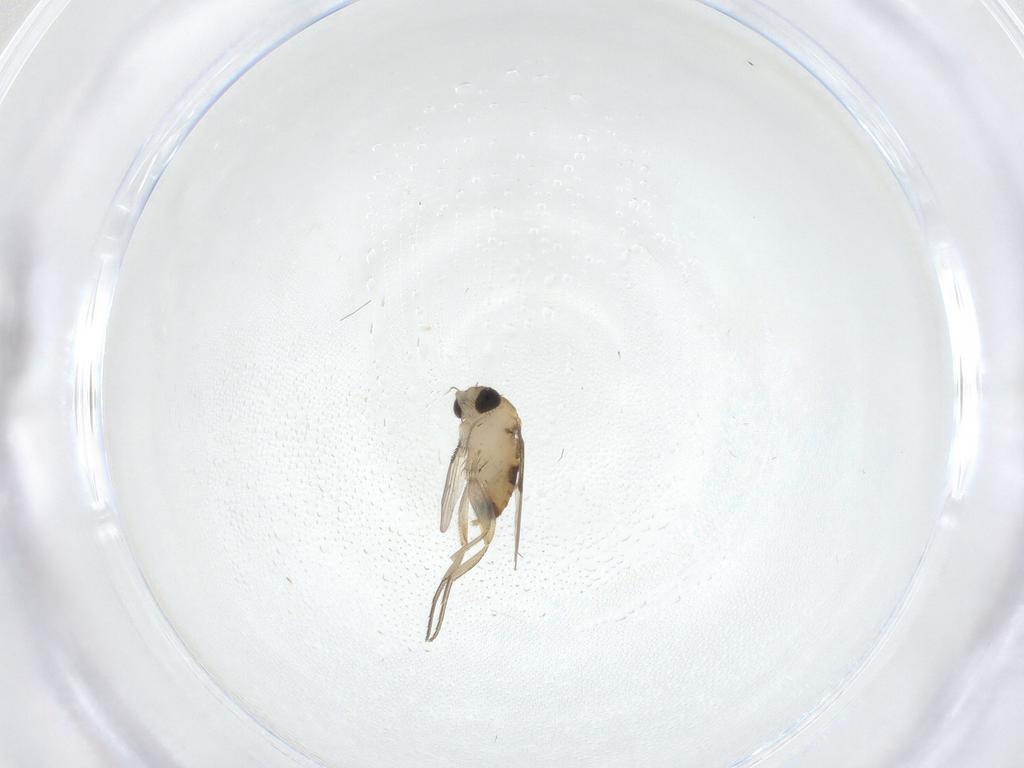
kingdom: Animalia
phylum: Arthropoda
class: Insecta
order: Diptera
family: Phoridae
